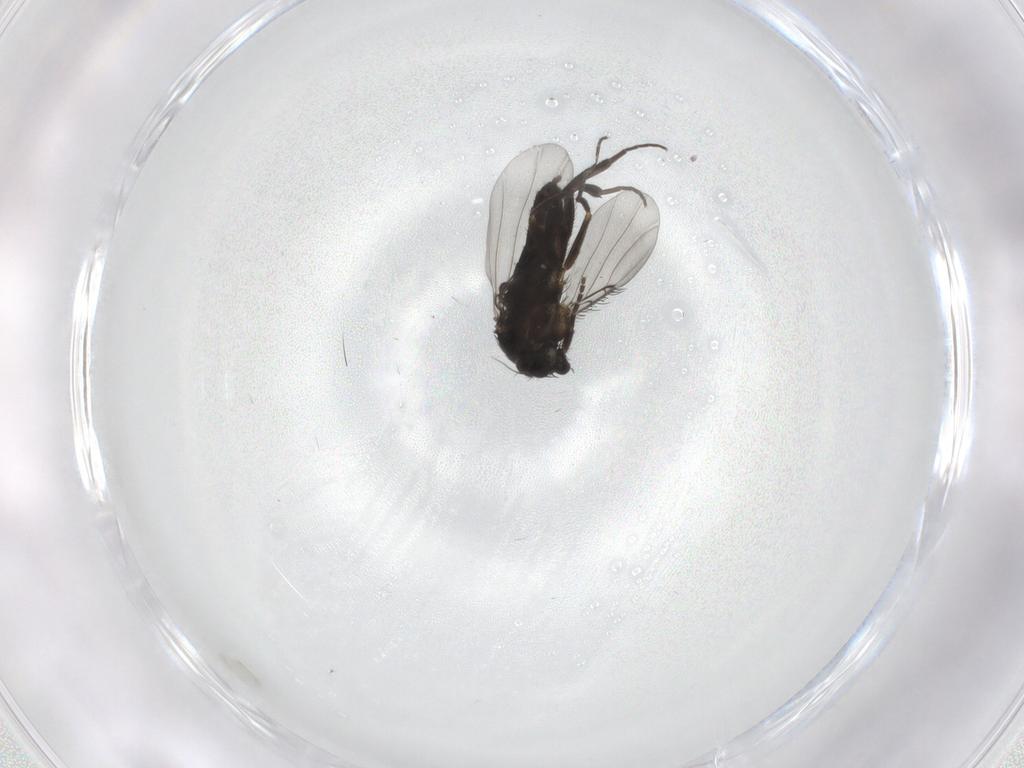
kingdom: Animalia
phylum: Arthropoda
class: Insecta
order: Diptera
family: Phoridae
